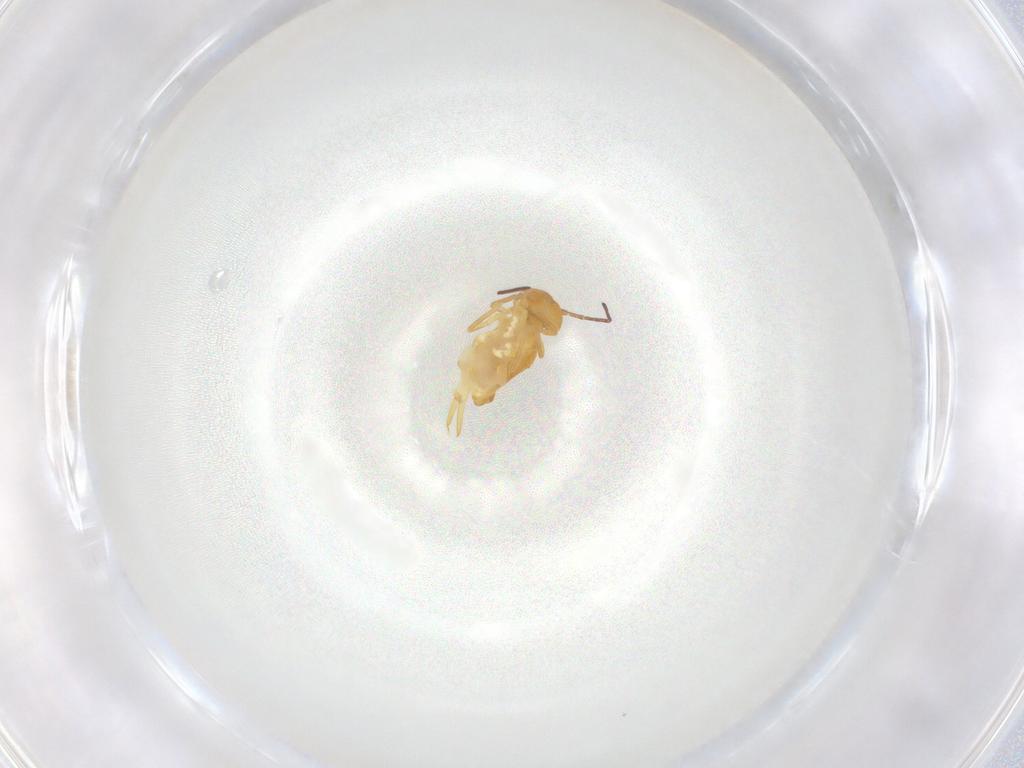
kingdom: Animalia
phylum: Arthropoda
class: Collembola
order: Symphypleona
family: Bourletiellidae
